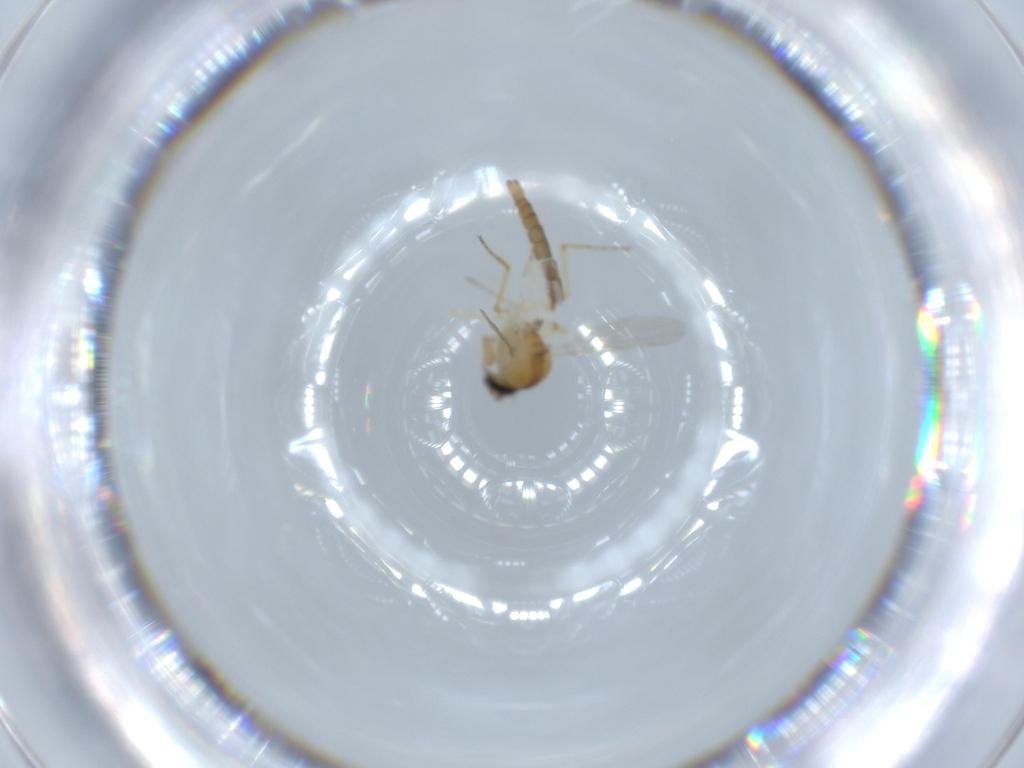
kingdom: Animalia
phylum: Arthropoda
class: Insecta
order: Diptera
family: Ceratopogonidae
